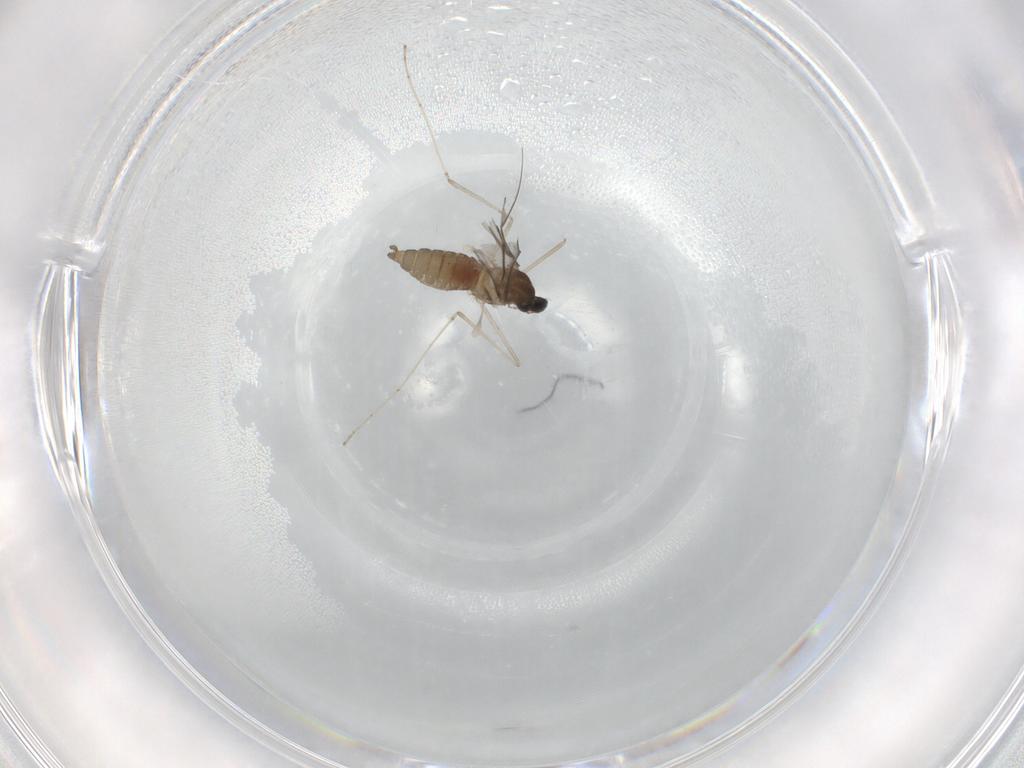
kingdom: Animalia
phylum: Arthropoda
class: Insecta
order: Diptera
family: Cecidomyiidae
